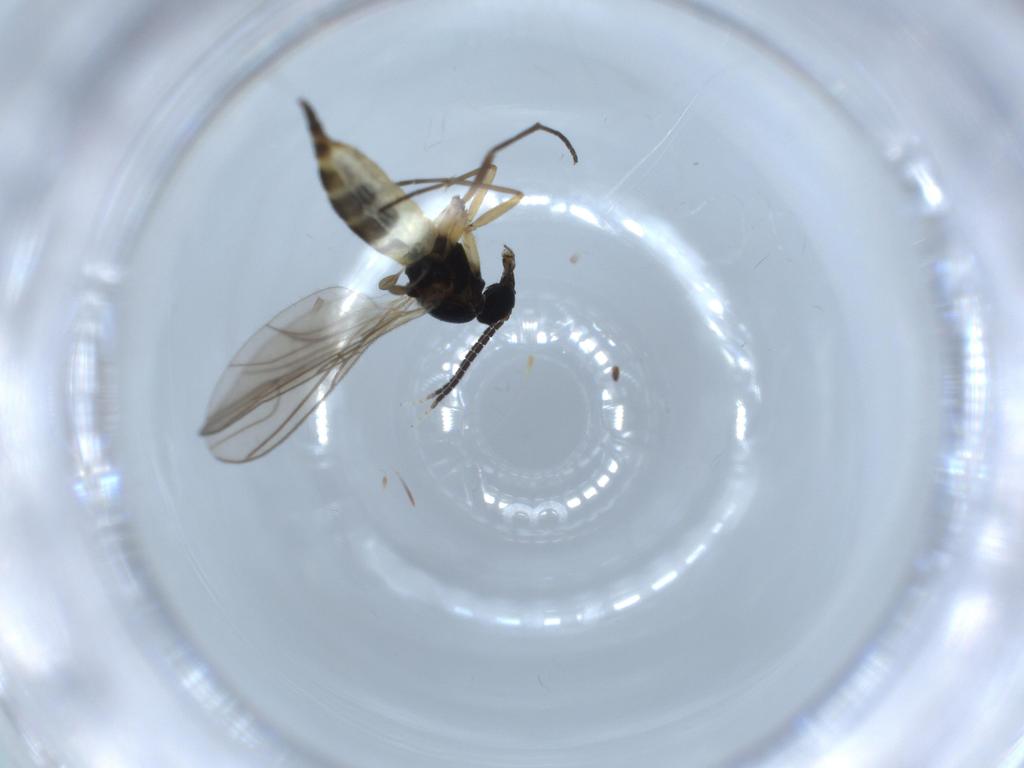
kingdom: Animalia
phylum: Arthropoda
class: Insecta
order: Diptera
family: Sciaridae
